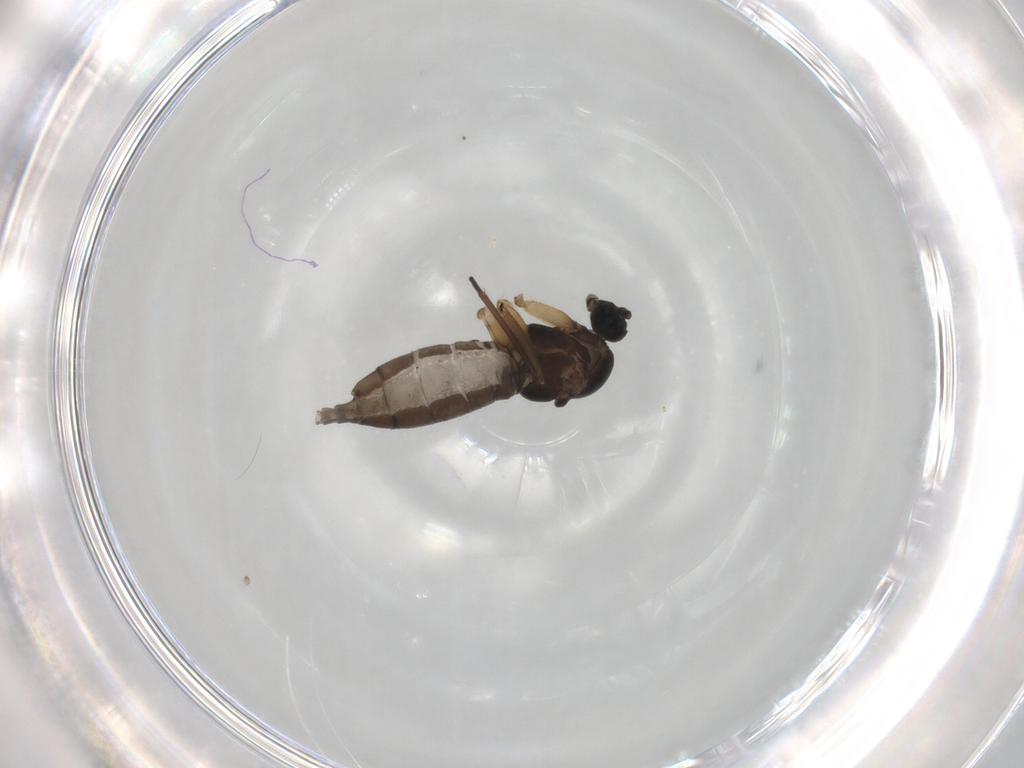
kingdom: Animalia
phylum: Arthropoda
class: Insecta
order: Diptera
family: Sciaridae
